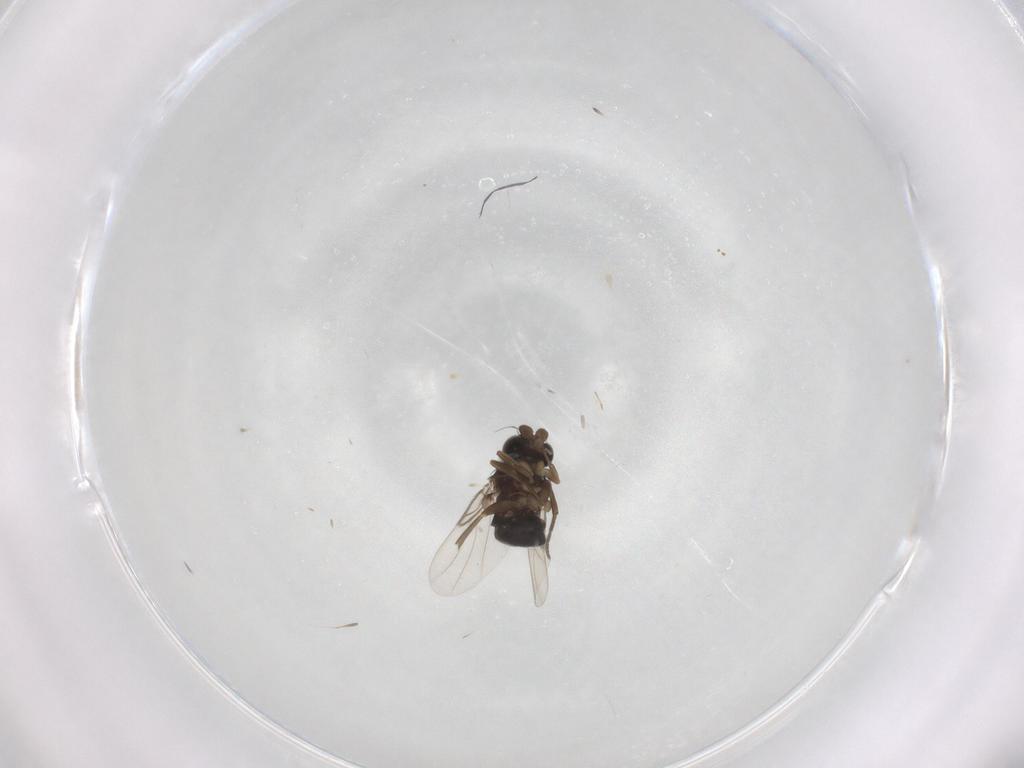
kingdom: Animalia
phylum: Arthropoda
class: Insecta
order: Diptera
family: Phoridae
